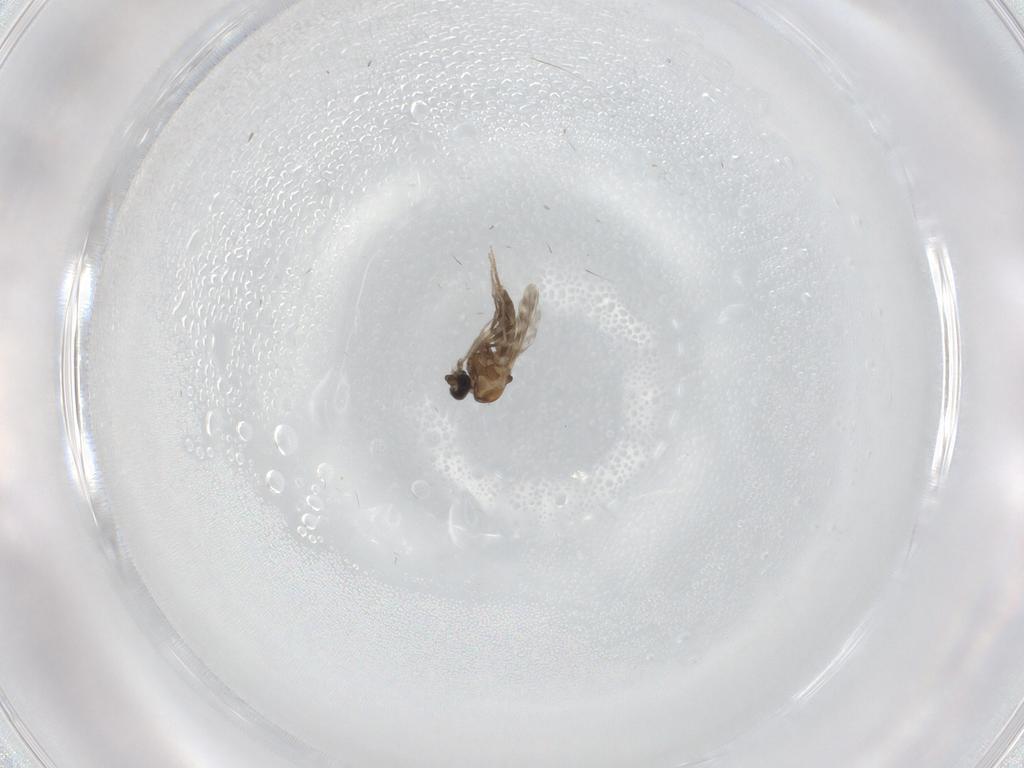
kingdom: Animalia
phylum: Arthropoda
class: Insecta
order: Diptera
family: Ceratopogonidae
